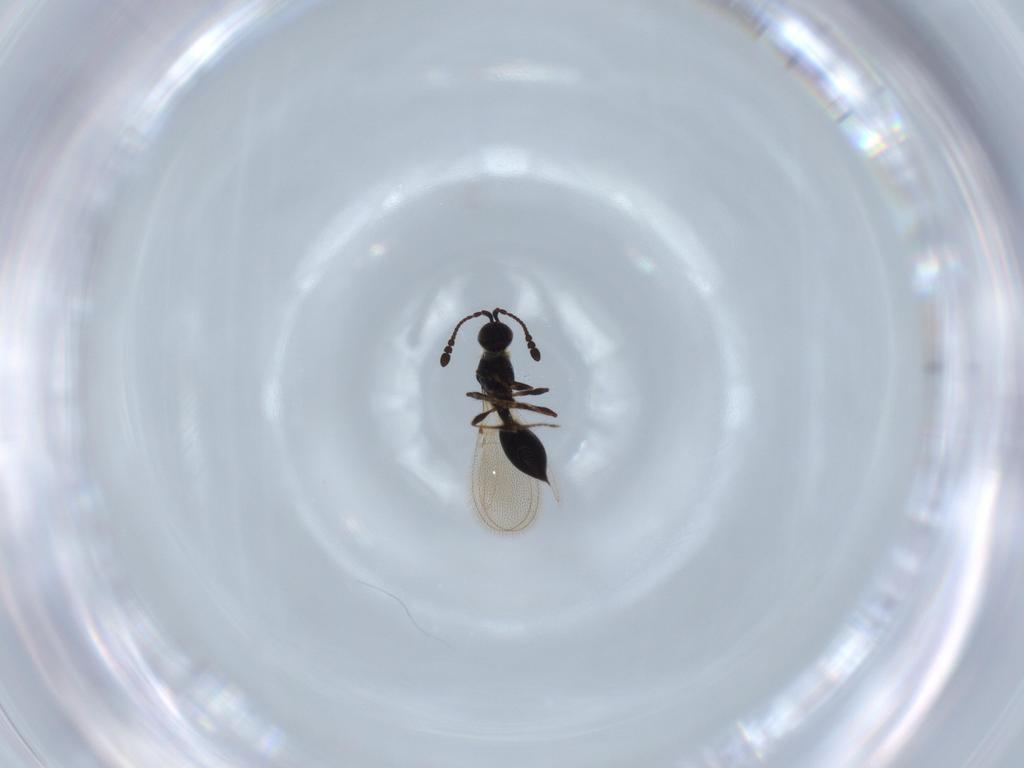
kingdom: Animalia
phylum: Arthropoda
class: Insecta
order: Hymenoptera
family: Diapriidae
